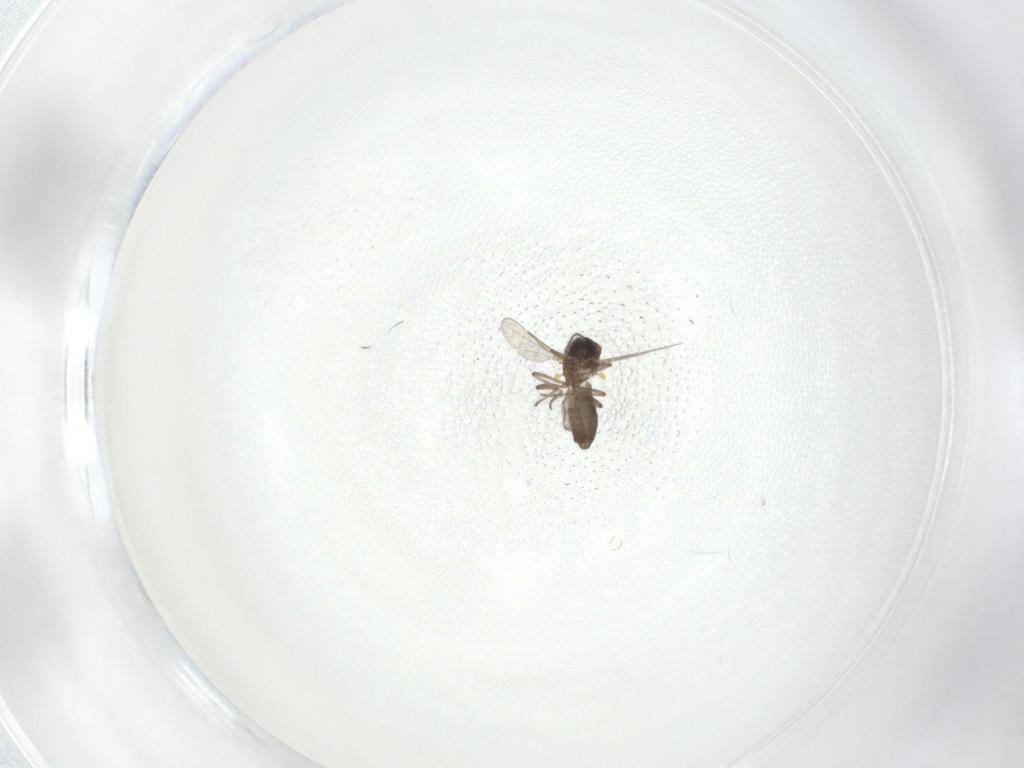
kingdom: Animalia
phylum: Arthropoda
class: Insecta
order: Diptera
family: Ceratopogonidae
